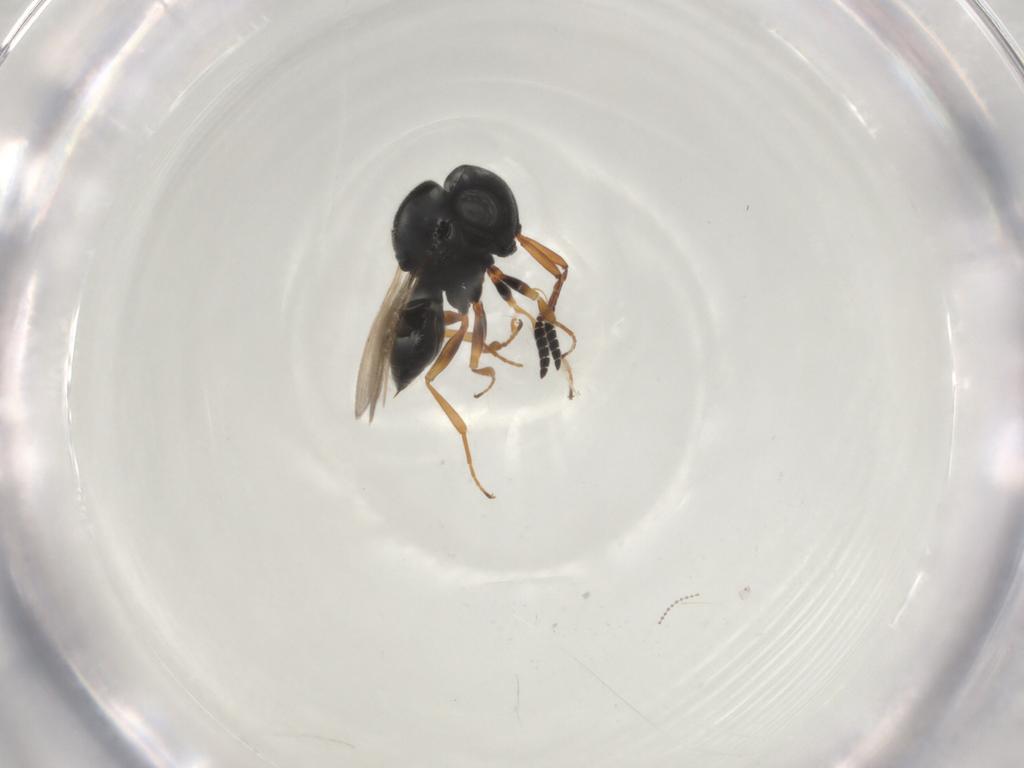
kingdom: Animalia
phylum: Arthropoda
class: Insecta
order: Hymenoptera
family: Scelionidae
